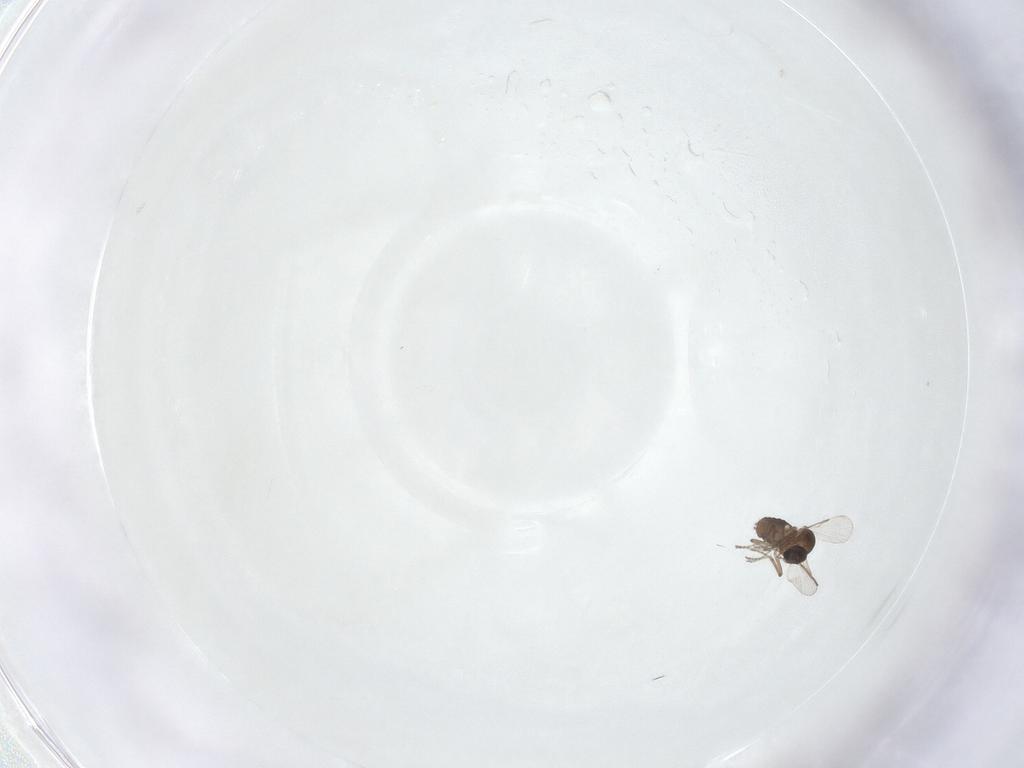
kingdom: Animalia
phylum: Arthropoda
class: Insecta
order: Diptera
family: Ceratopogonidae
